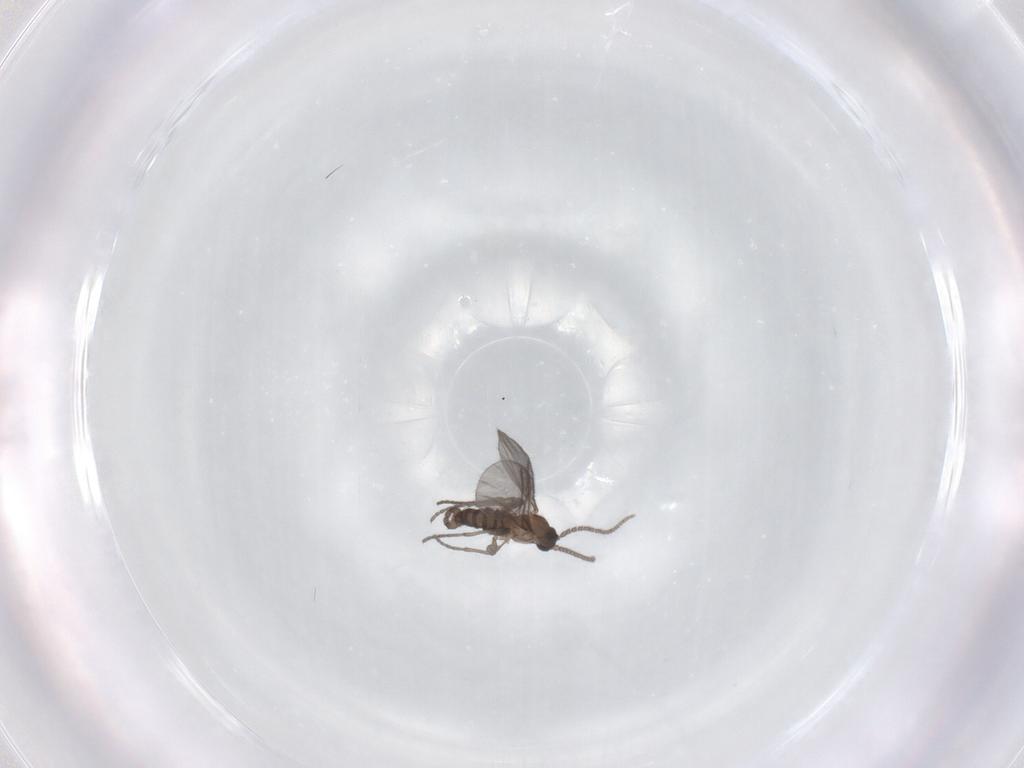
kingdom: Animalia
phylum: Arthropoda
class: Insecta
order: Diptera
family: Sciaridae
